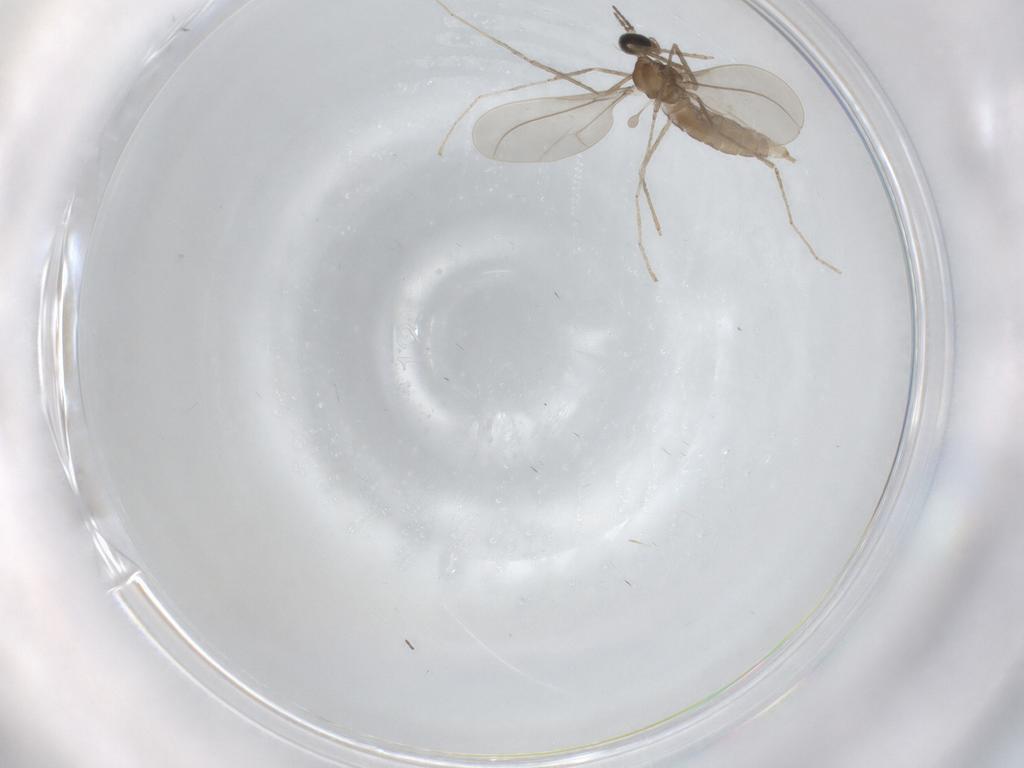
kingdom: Animalia
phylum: Arthropoda
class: Insecta
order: Diptera
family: Cecidomyiidae
